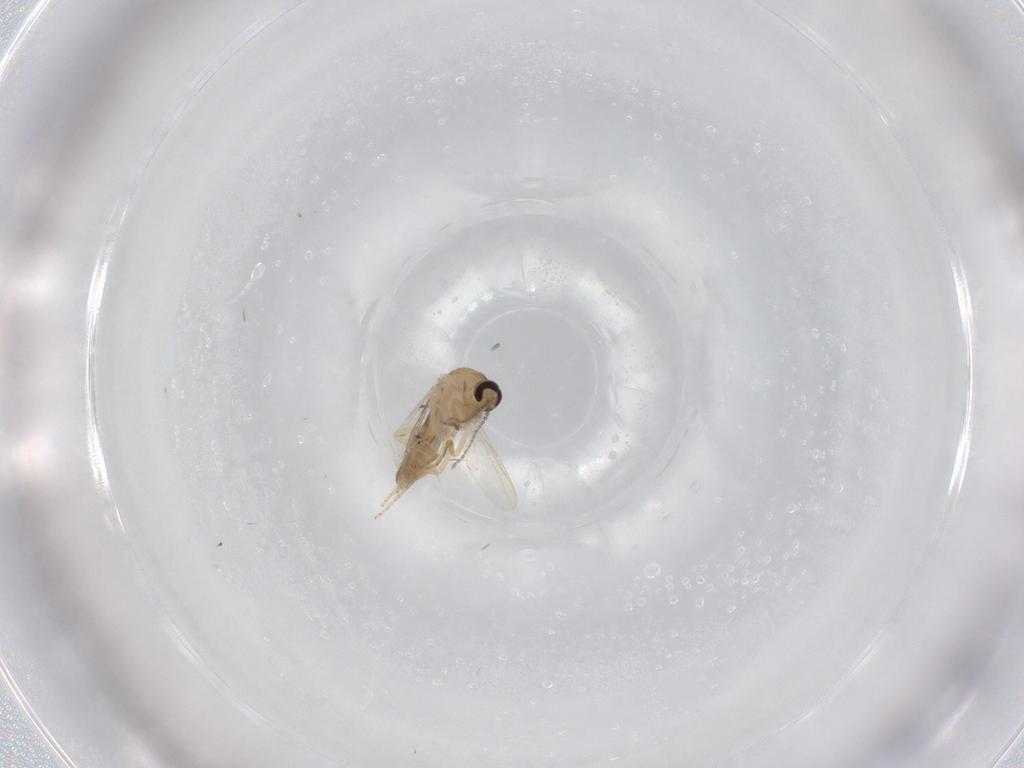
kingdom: Animalia
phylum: Arthropoda
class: Insecta
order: Diptera
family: Ceratopogonidae
